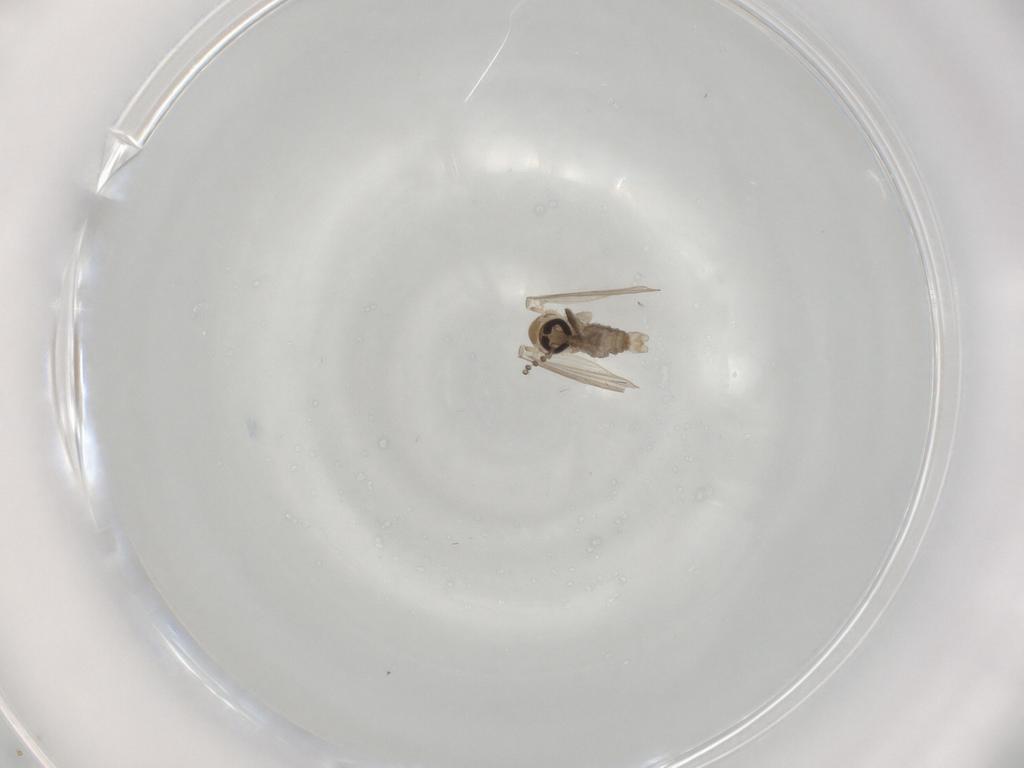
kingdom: Animalia
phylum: Arthropoda
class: Insecta
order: Diptera
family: Psychodidae
